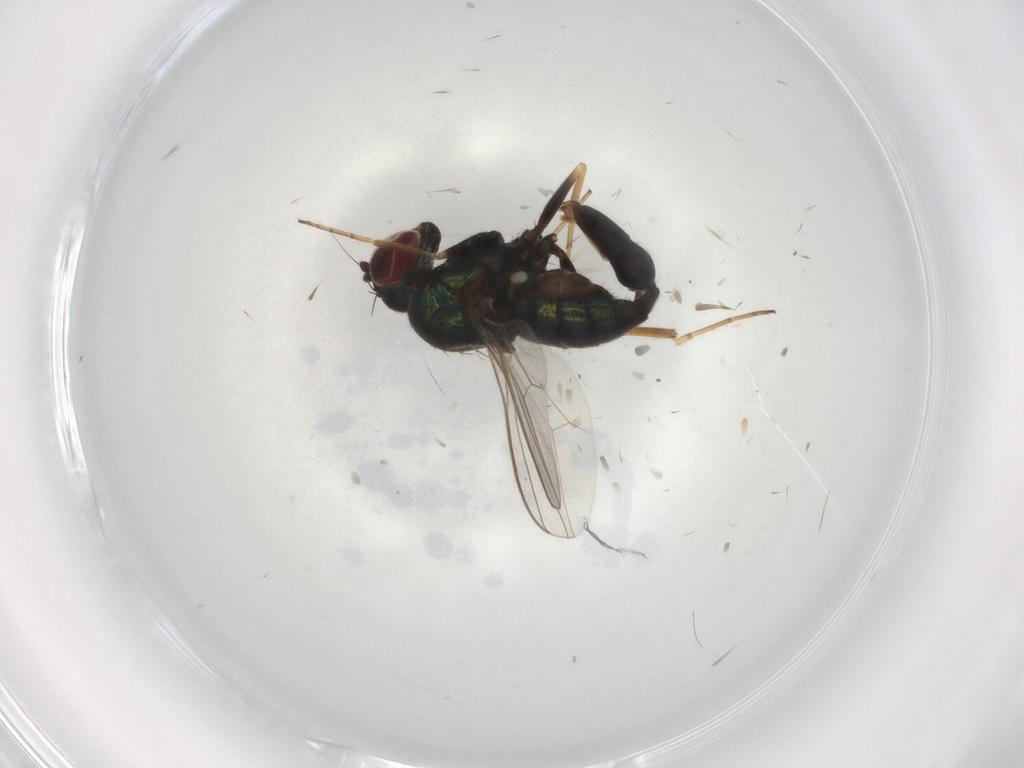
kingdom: Animalia
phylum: Arthropoda
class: Insecta
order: Diptera
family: Dolichopodidae
